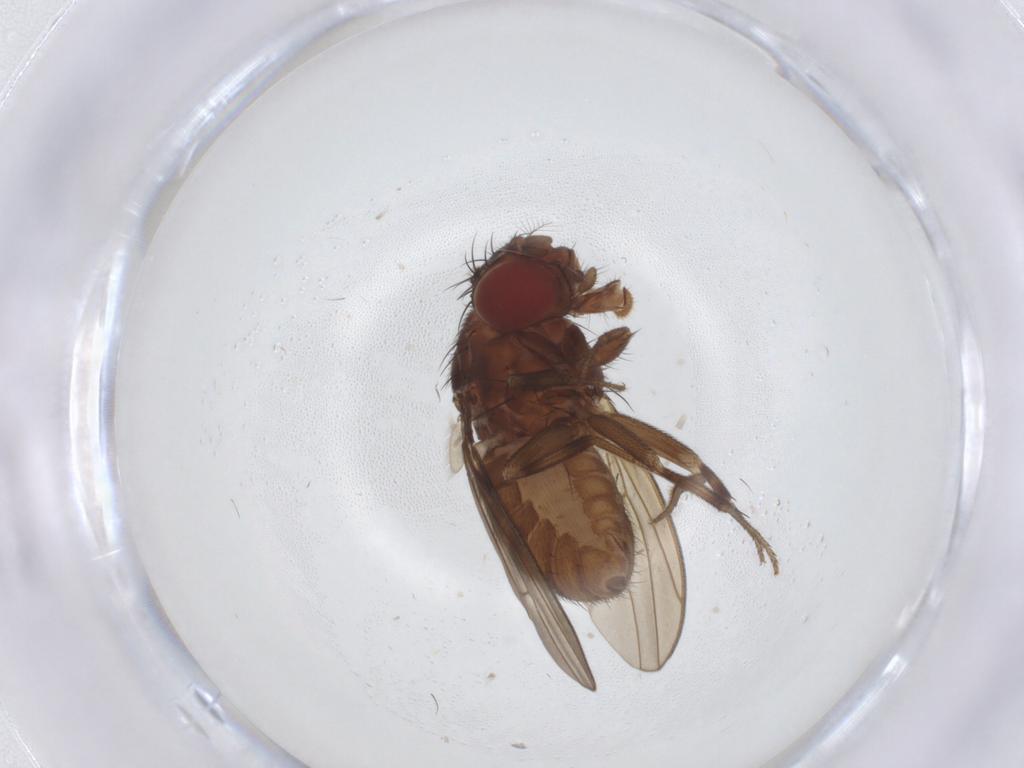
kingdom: Animalia
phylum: Arthropoda
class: Insecta
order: Diptera
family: Drosophilidae
